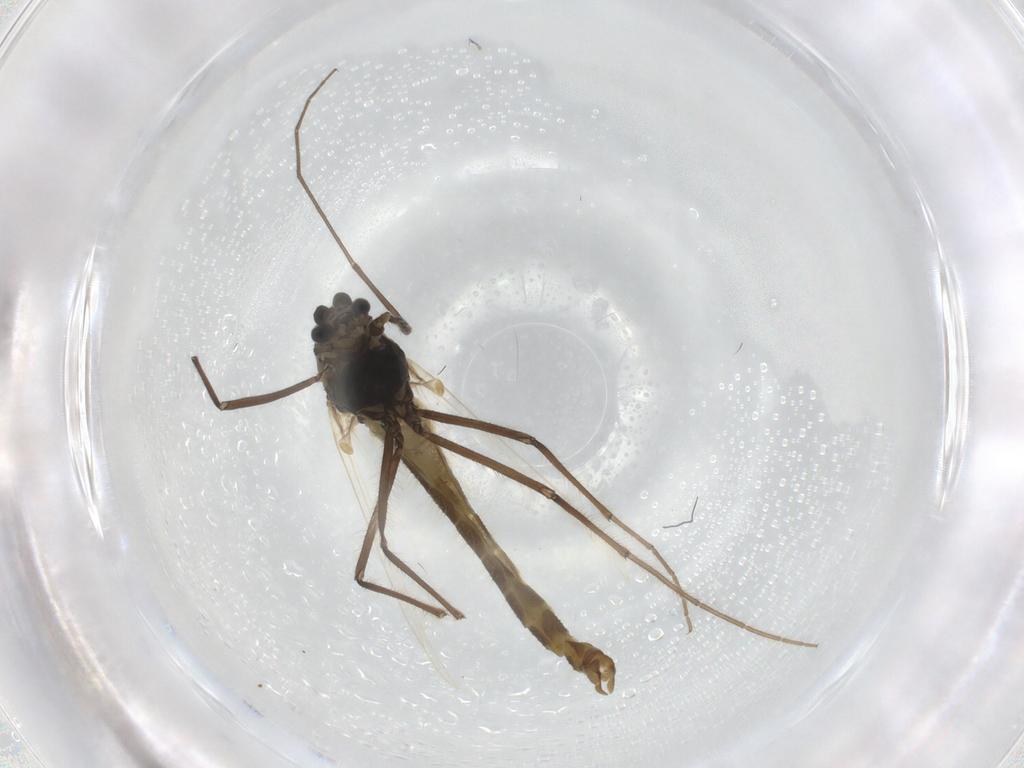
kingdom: Animalia
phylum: Arthropoda
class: Insecta
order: Diptera
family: Chironomidae
